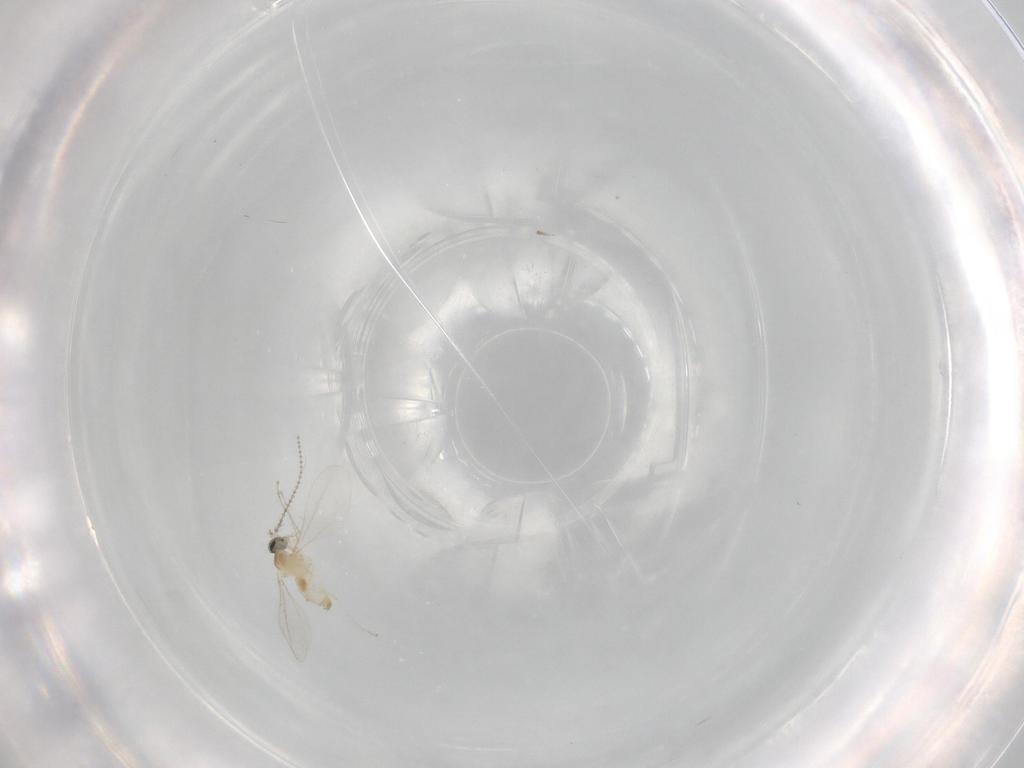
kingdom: Animalia
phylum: Arthropoda
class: Insecta
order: Diptera
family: Cecidomyiidae
